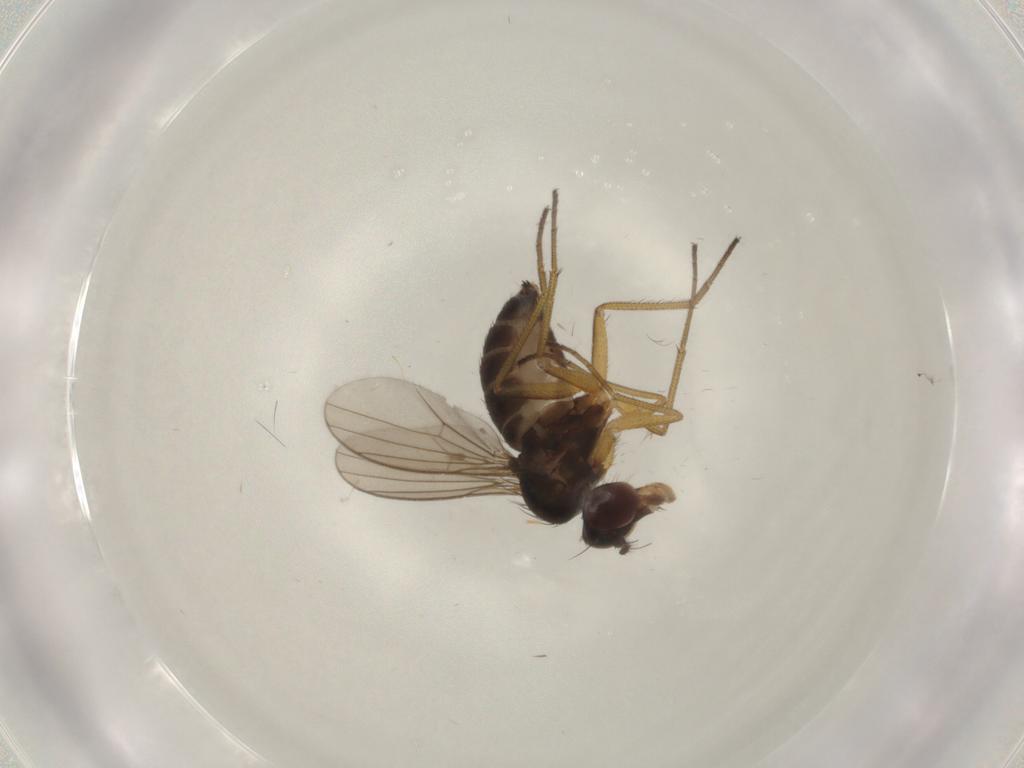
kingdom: Animalia
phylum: Arthropoda
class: Insecta
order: Diptera
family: Dolichopodidae
